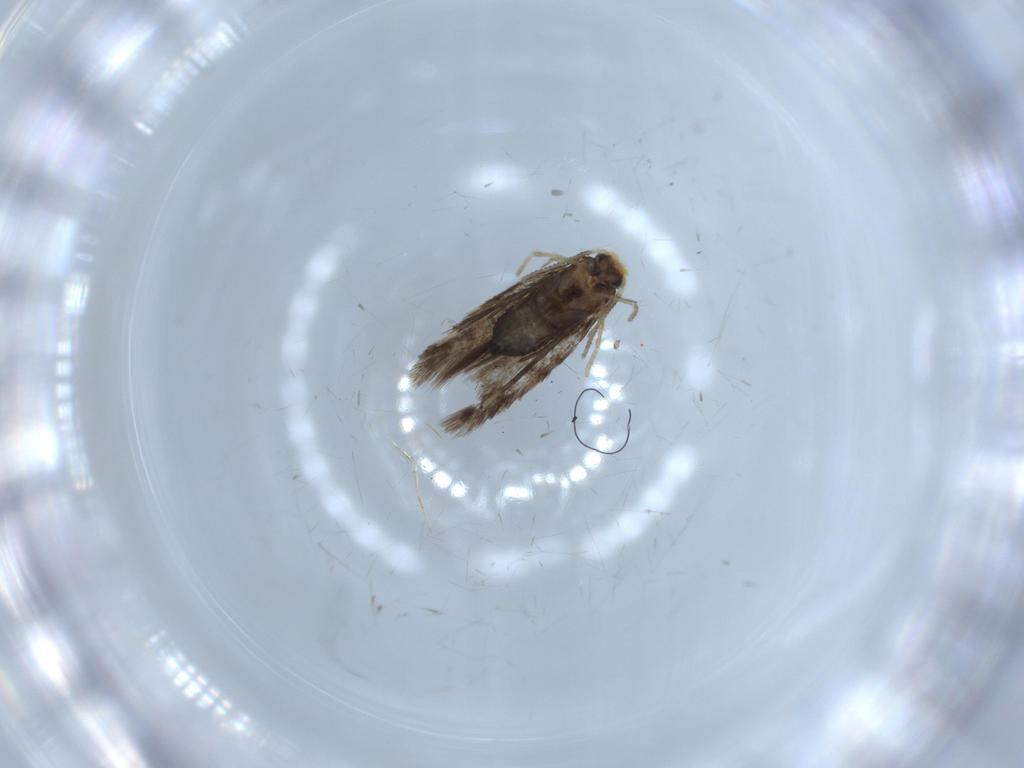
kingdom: Animalia
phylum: Arthropoda
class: Insecta
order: Lepidoptera
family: Nepticulidae
